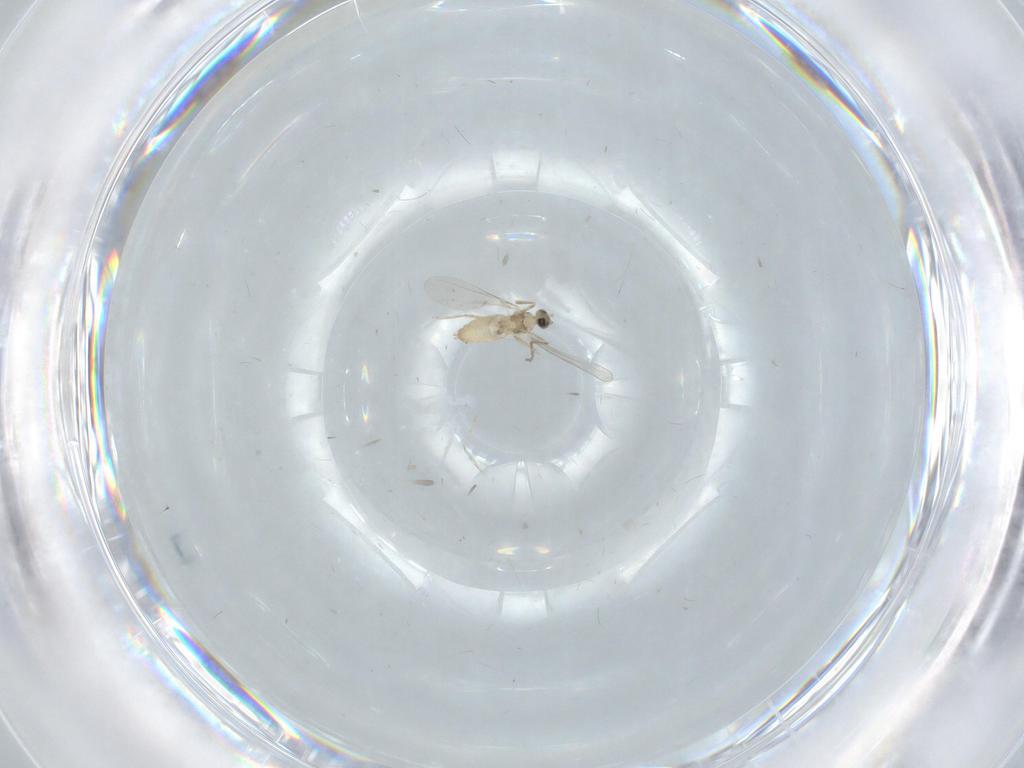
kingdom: Animalia
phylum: Arthropoda
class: Insecta
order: Diptera
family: Cecidomyiidae
